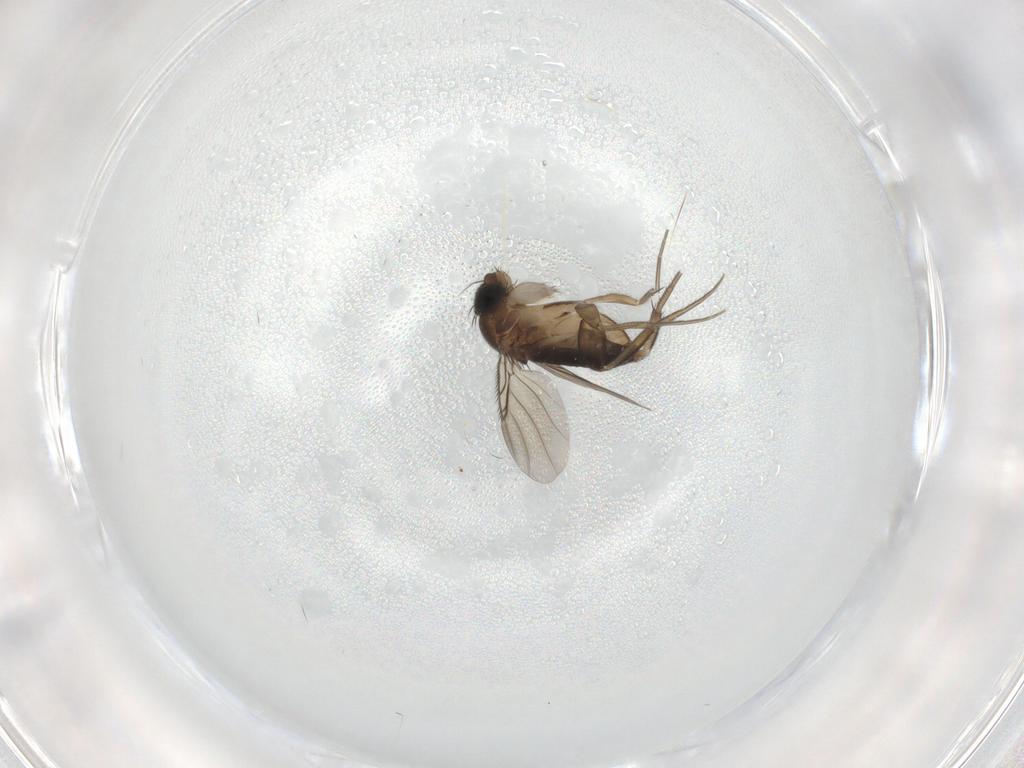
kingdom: Animalia
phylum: Arthropoda
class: Insecta
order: Diptera
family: Phoridae
